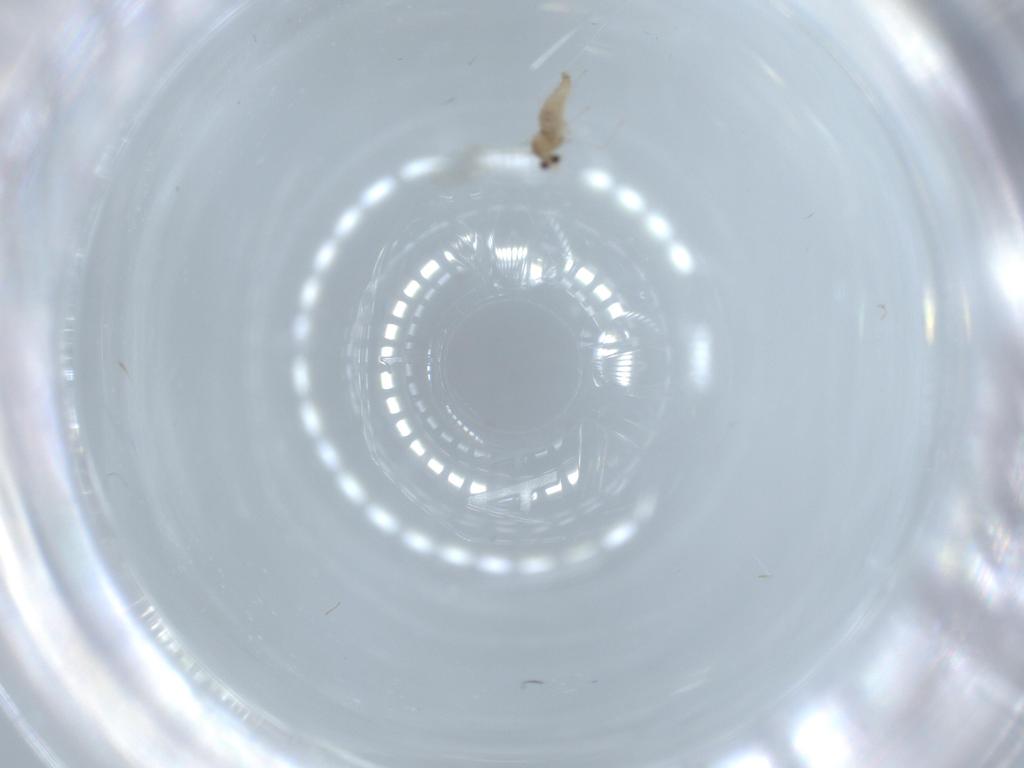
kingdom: Animalia
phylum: Arthropoda
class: Insecta
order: Diptera
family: Cecidomyiidae
